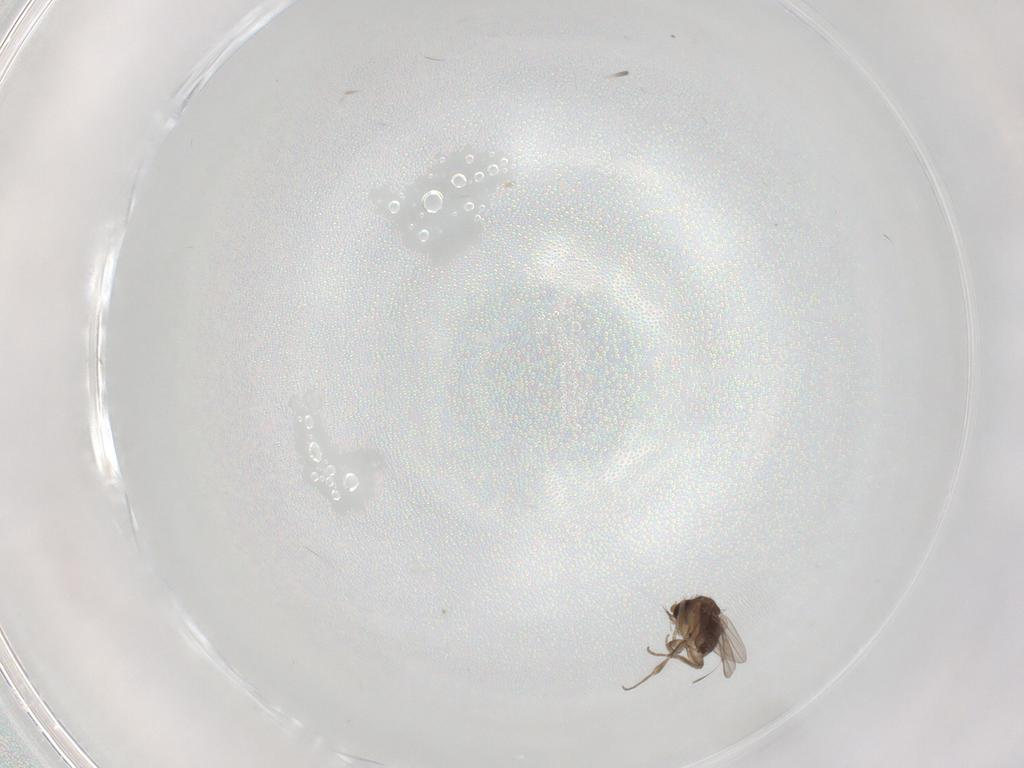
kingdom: Animalia
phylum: Arthropoda
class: Insecta
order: Diptera
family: Phoridae
